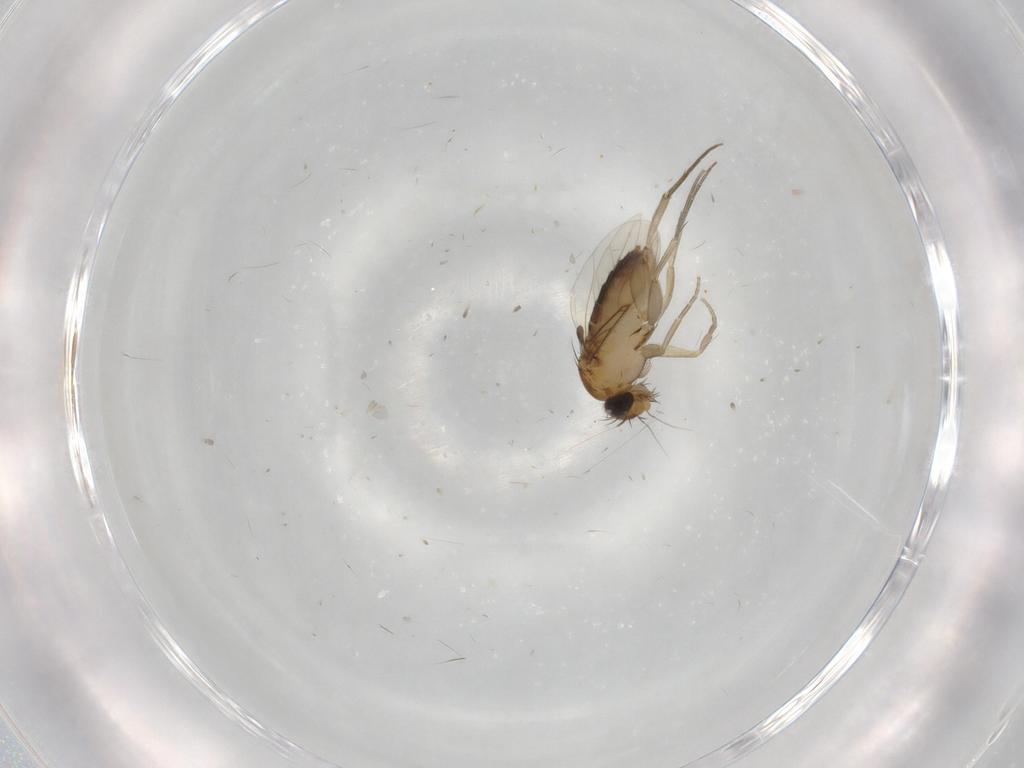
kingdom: Animalia
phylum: Arthropoda
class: Insecta
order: Diptera
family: Phoridae
